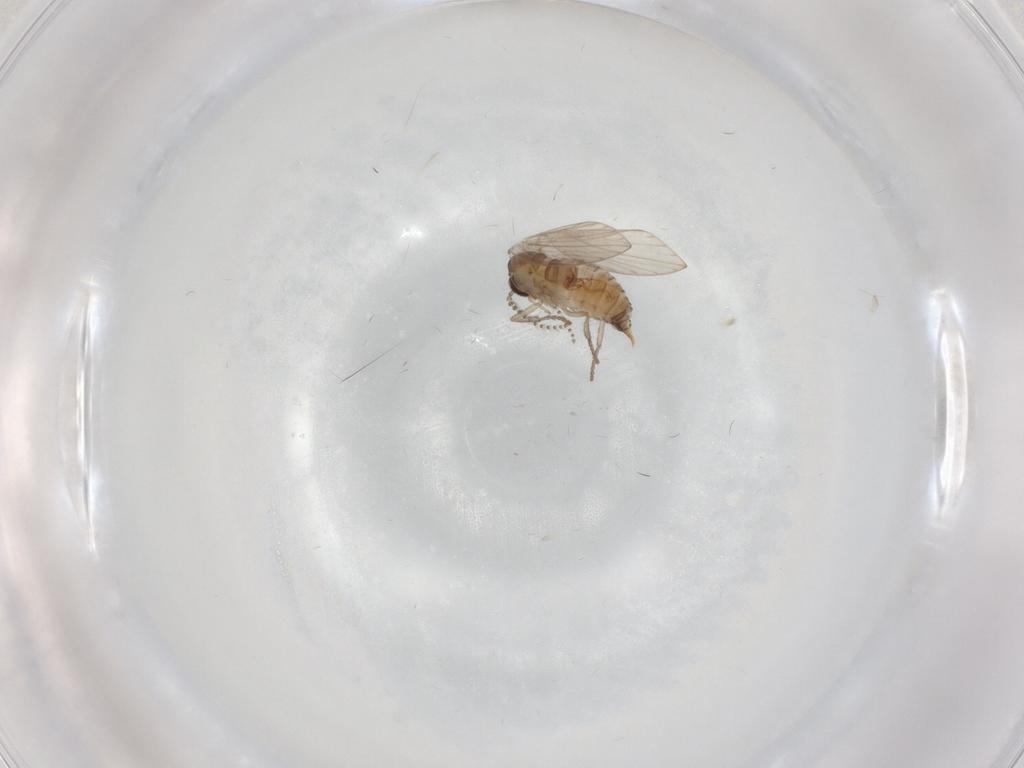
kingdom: Animalia
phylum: Arthropoda
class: Insecta
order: Diptera
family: Psychodidae
